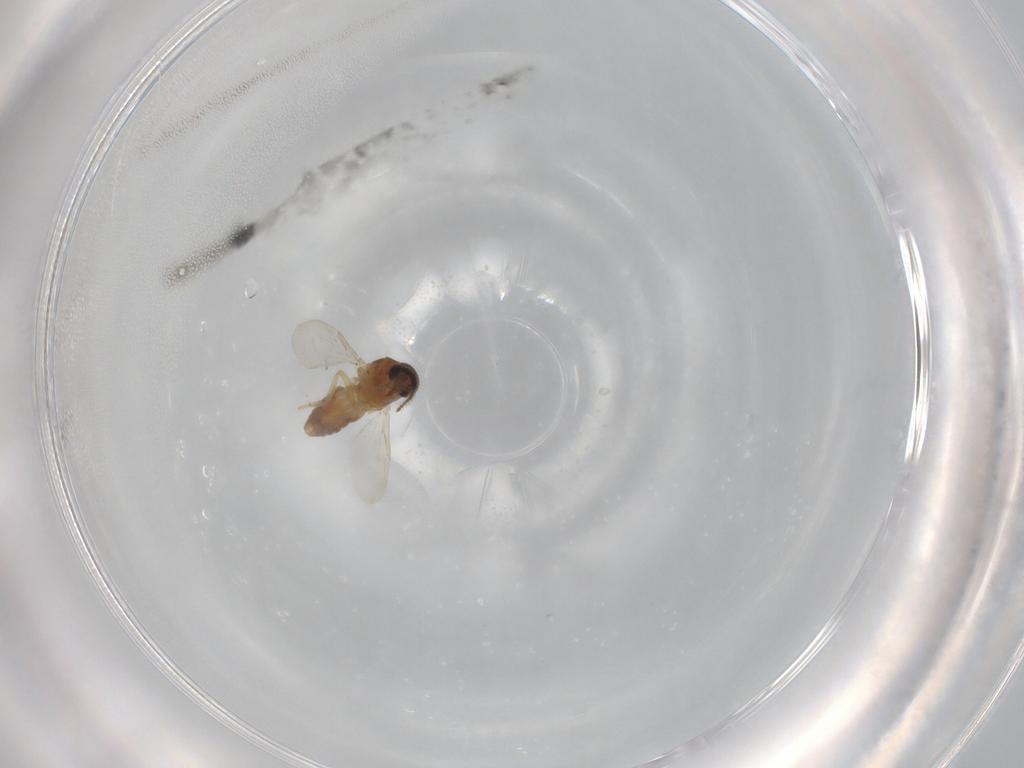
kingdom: Animalia
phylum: Arthropoda
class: Insecta
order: Diptera
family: Ceratopogonidae
